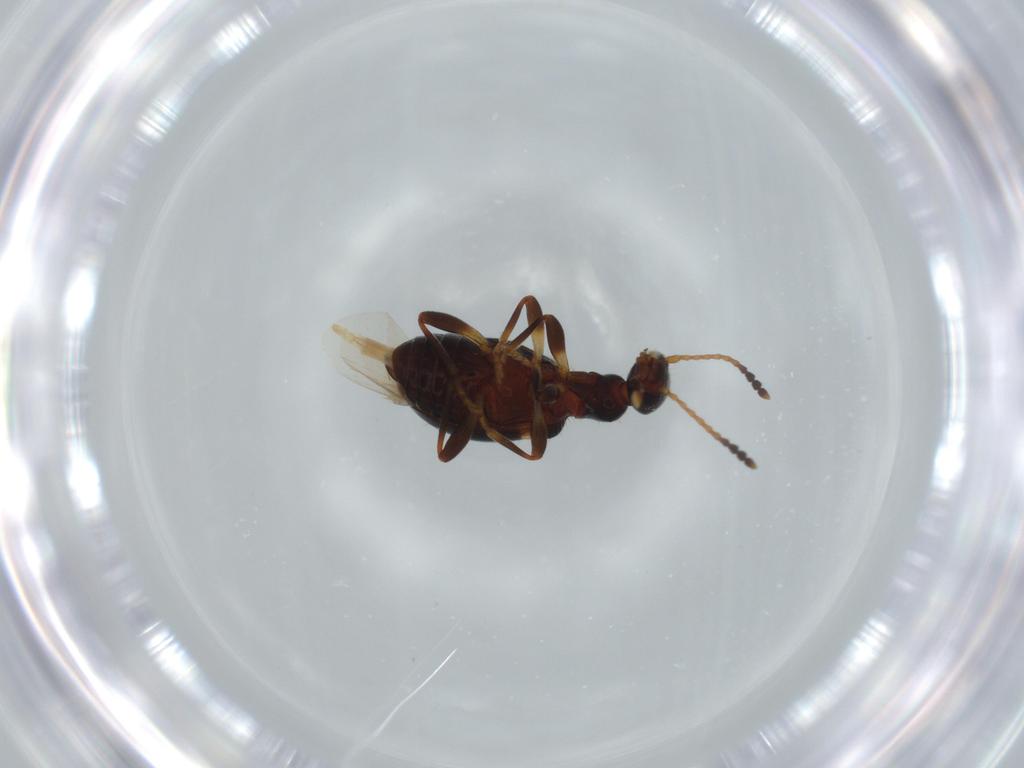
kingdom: Animalia
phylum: Arthropoda
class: Insecta
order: Coleoptera
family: Anthicidae
